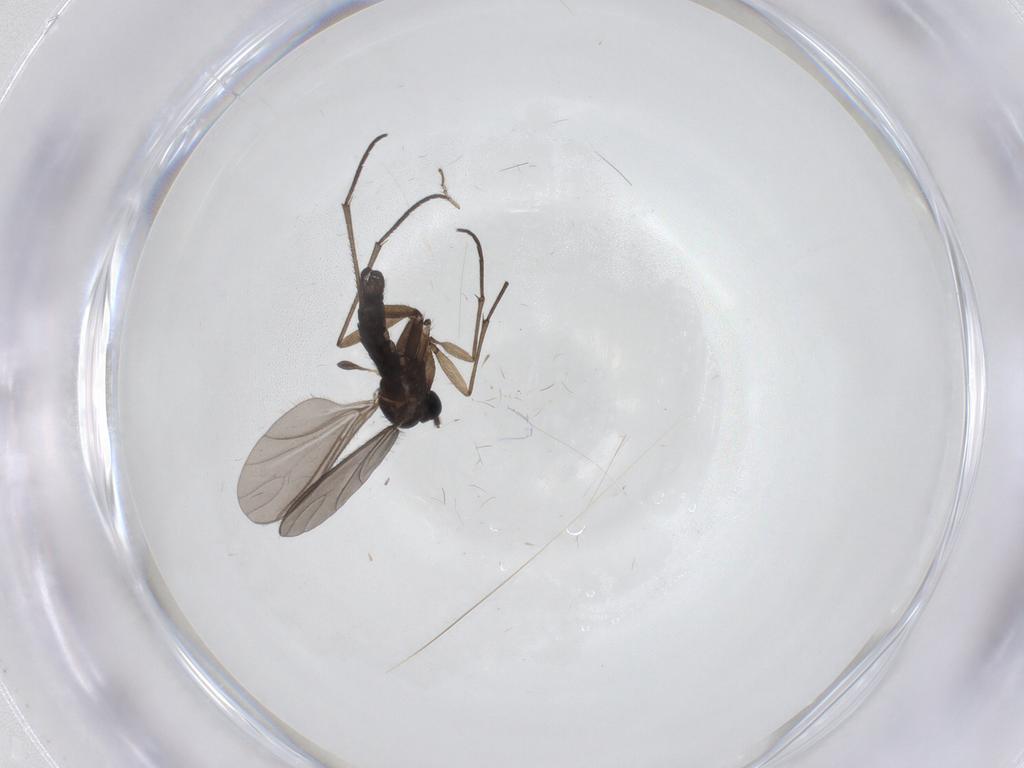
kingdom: Animalia
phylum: Arthropoda
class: Insecta
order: Diptera
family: Sciaridae
